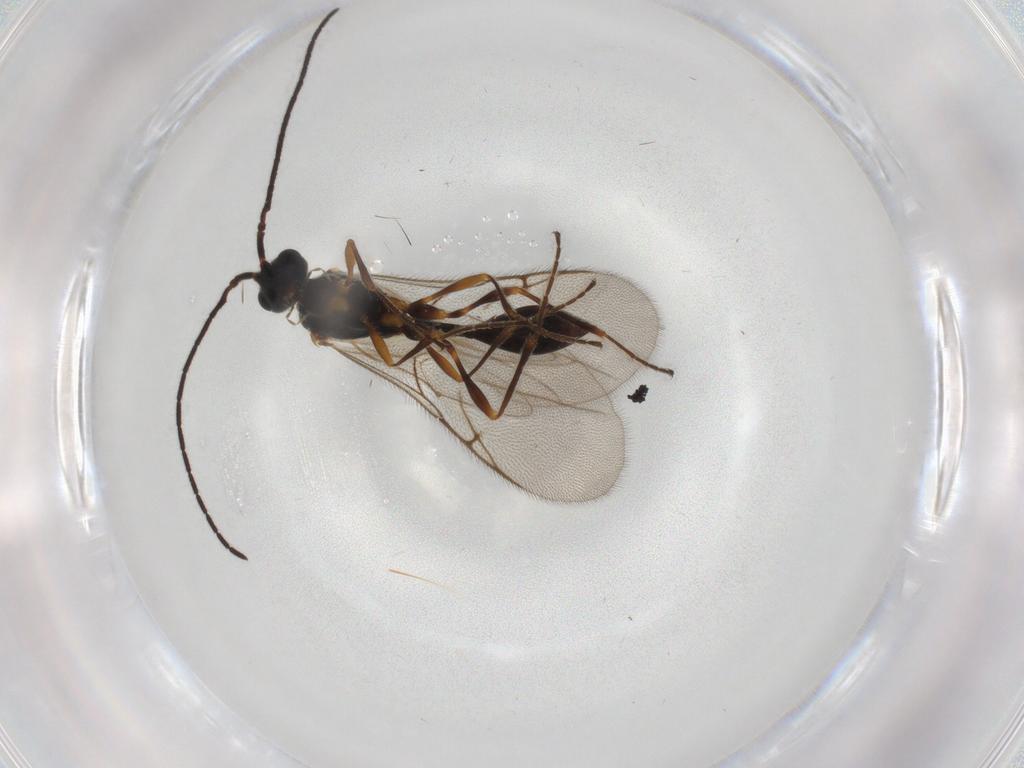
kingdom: Animalia
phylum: Arthropoda
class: Insecta
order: Hymenoptera
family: Diapriidae
